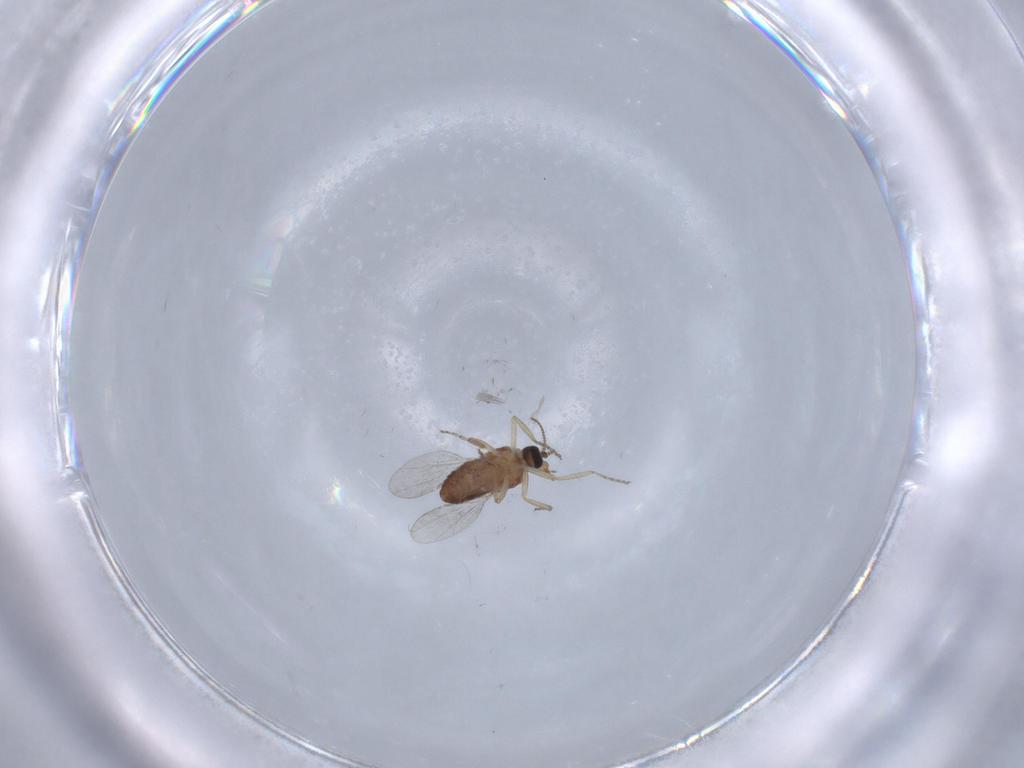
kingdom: Animalia
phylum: Arthropoda
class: Insecta
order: Diptera
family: Ceratopogonidae
